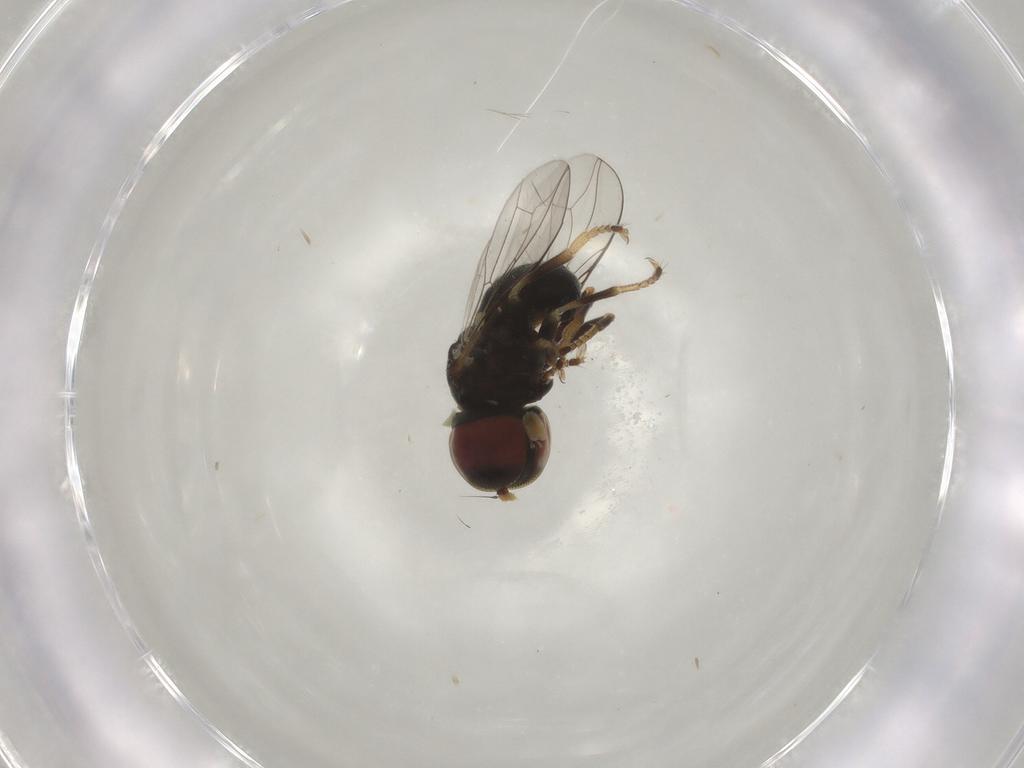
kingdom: Animalia
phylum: Arthropoda
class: Insecta
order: Diptera
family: Pipunculidae
